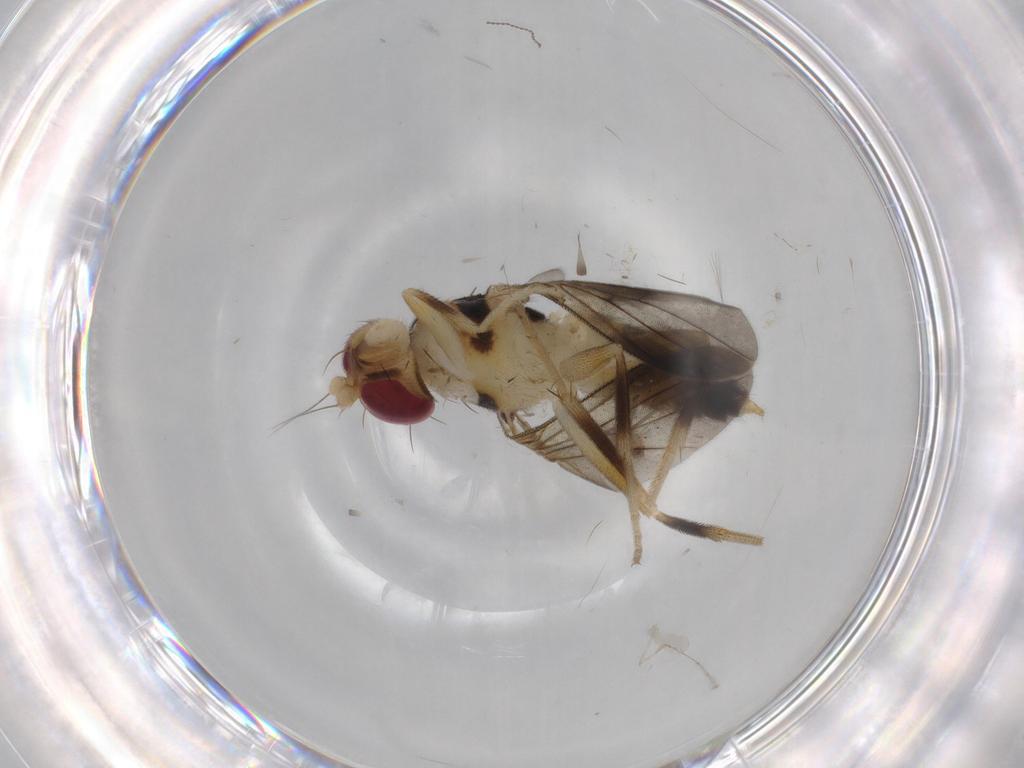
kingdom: Animalia
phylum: Arthropoda
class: Insecta
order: Diptera
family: Clusiidae
